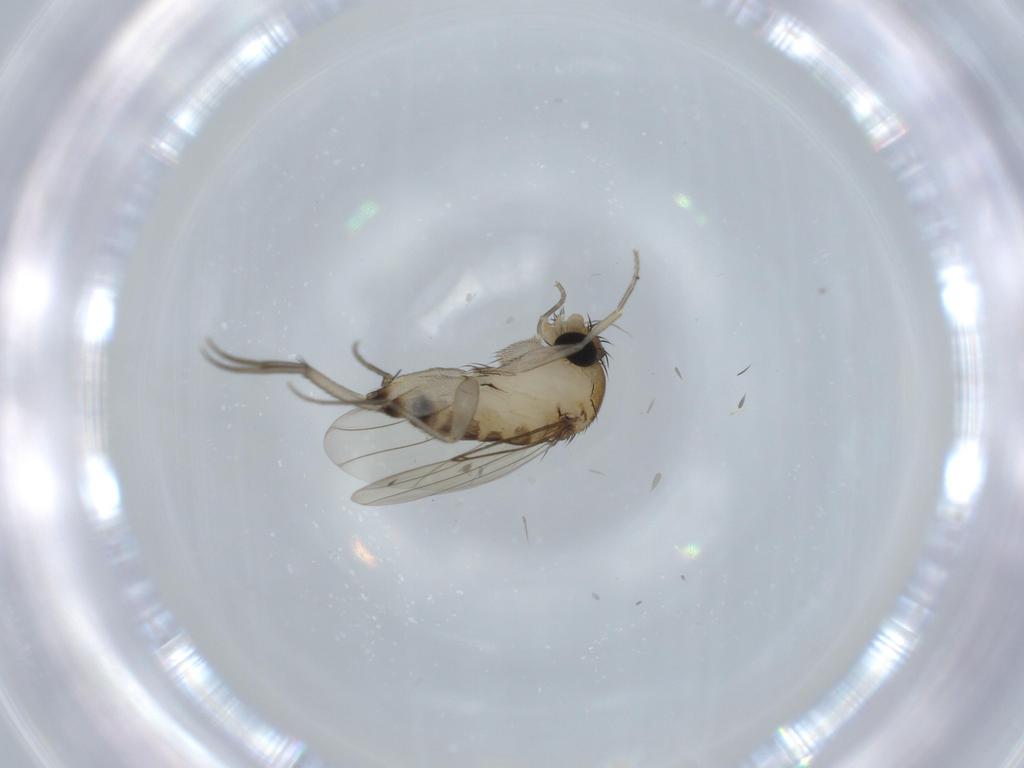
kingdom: Animalia
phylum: Arthropoda
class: Insecta
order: Diptera
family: Phoridae
